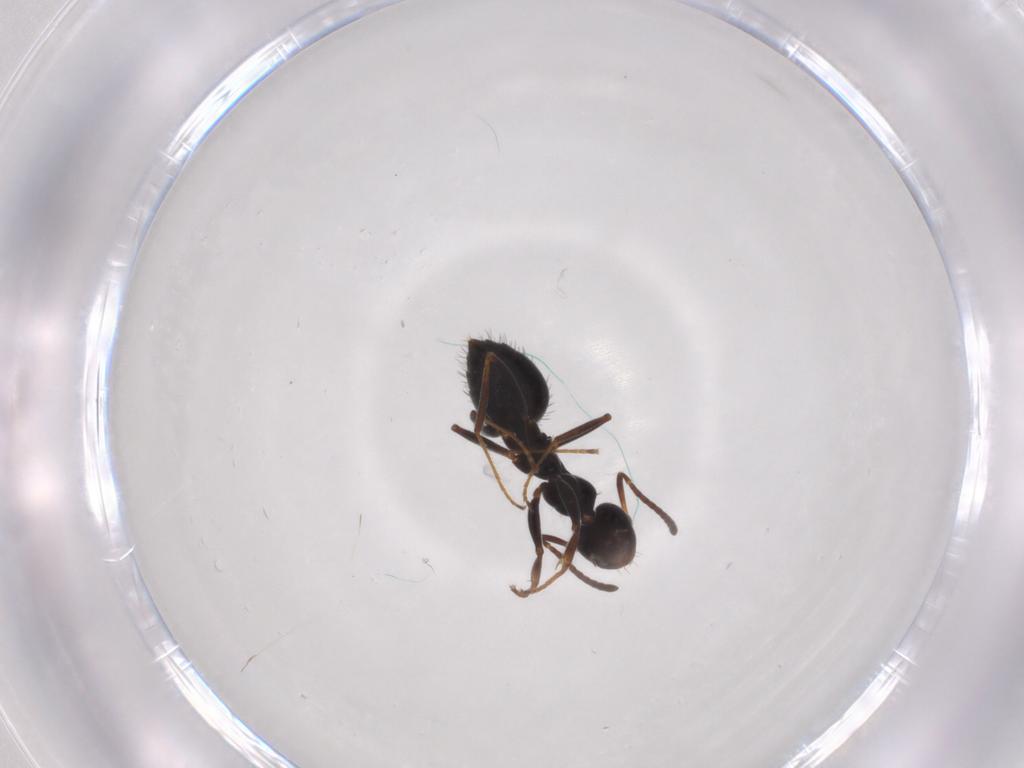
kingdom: Animalia
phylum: Arthropoda
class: Insecta
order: Hymenoptera
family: Formicidae
